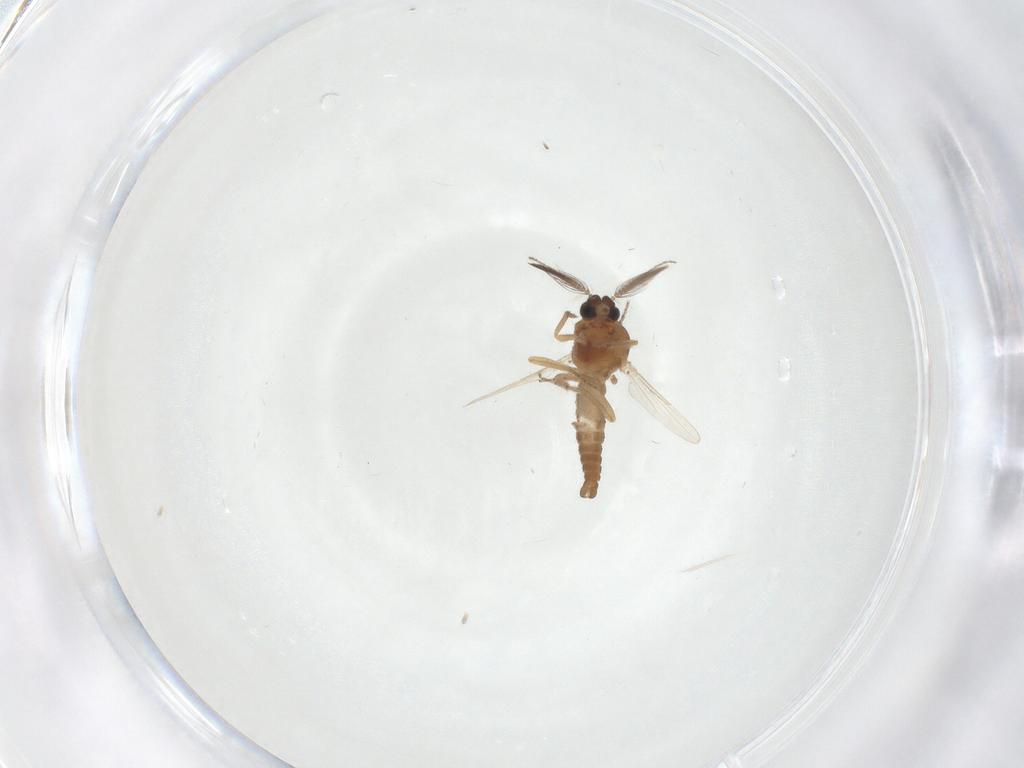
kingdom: Animalia
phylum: Arthropoda
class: Insecta
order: Diptera
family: Ceratopogonidae
